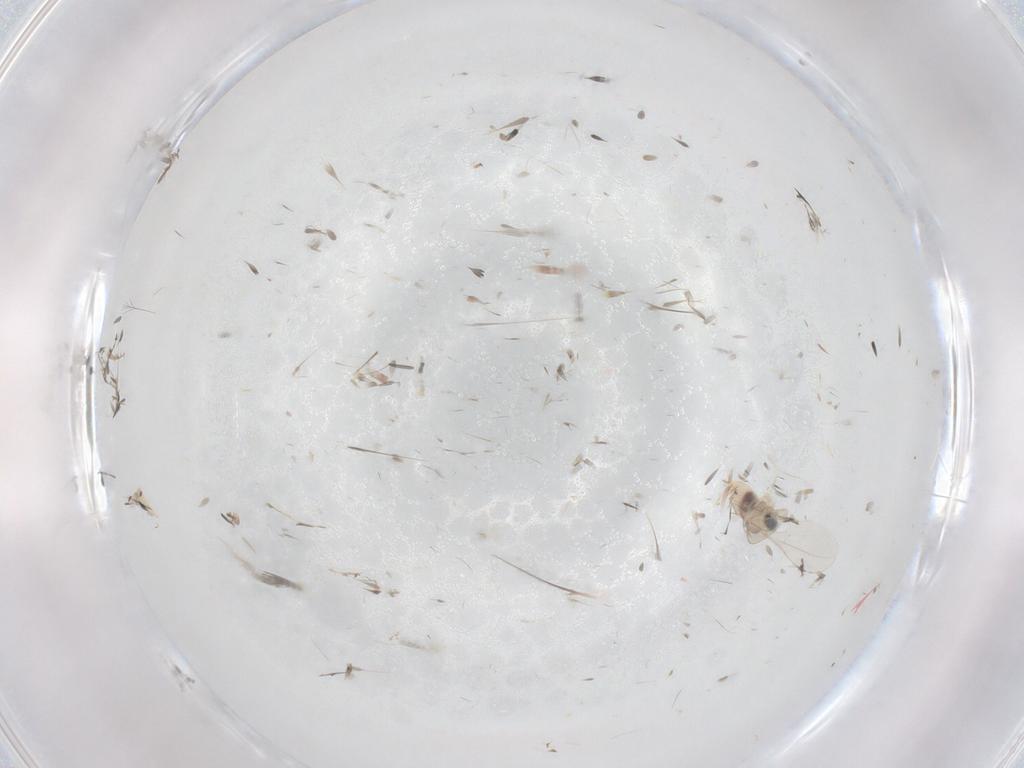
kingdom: Animalia
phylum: Arthropoda
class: Insecta
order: Diptera
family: Cecidomyiidae
